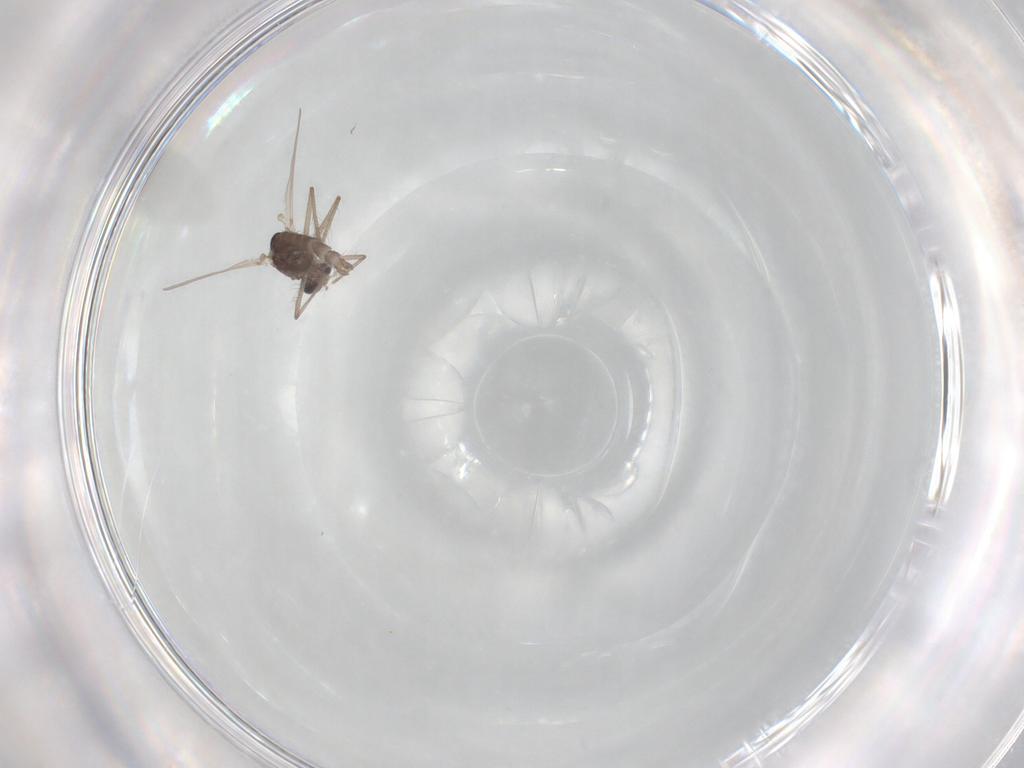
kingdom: Animalia
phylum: Arthropoda
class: Insecta
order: Diptera
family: Chironomidae
